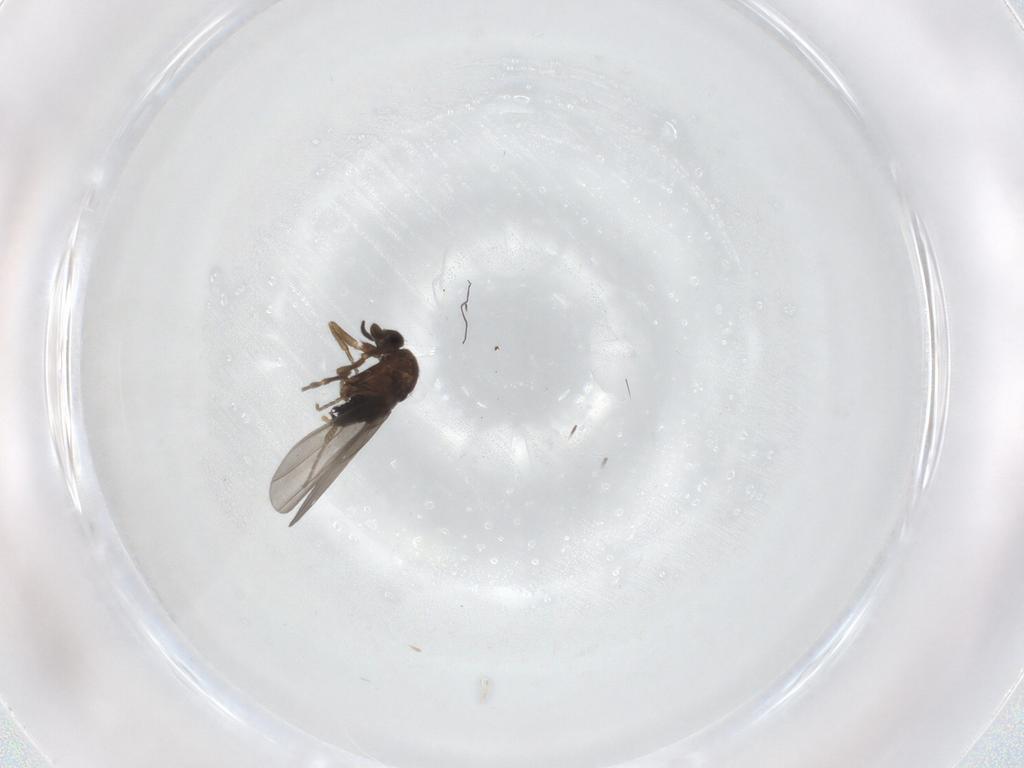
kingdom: Animalia
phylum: Arthropoda
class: Insecta
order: Diptera
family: Phoridae
